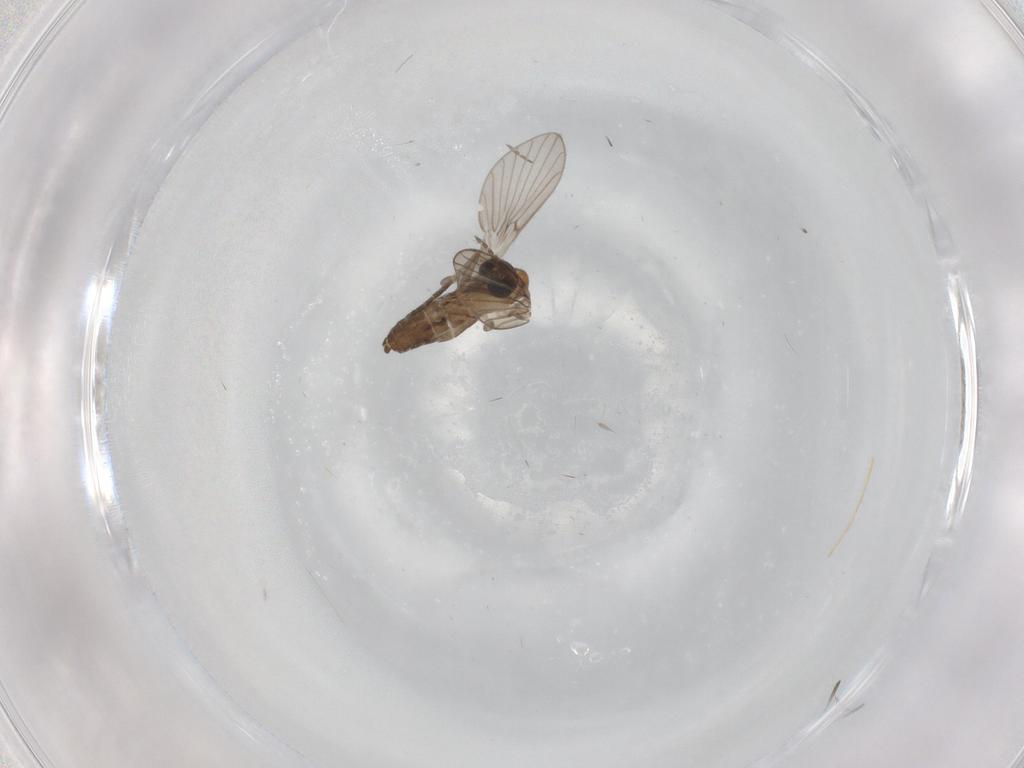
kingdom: Animalia
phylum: Arthropoda
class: Insecta
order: Diptera
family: Psychodidae
